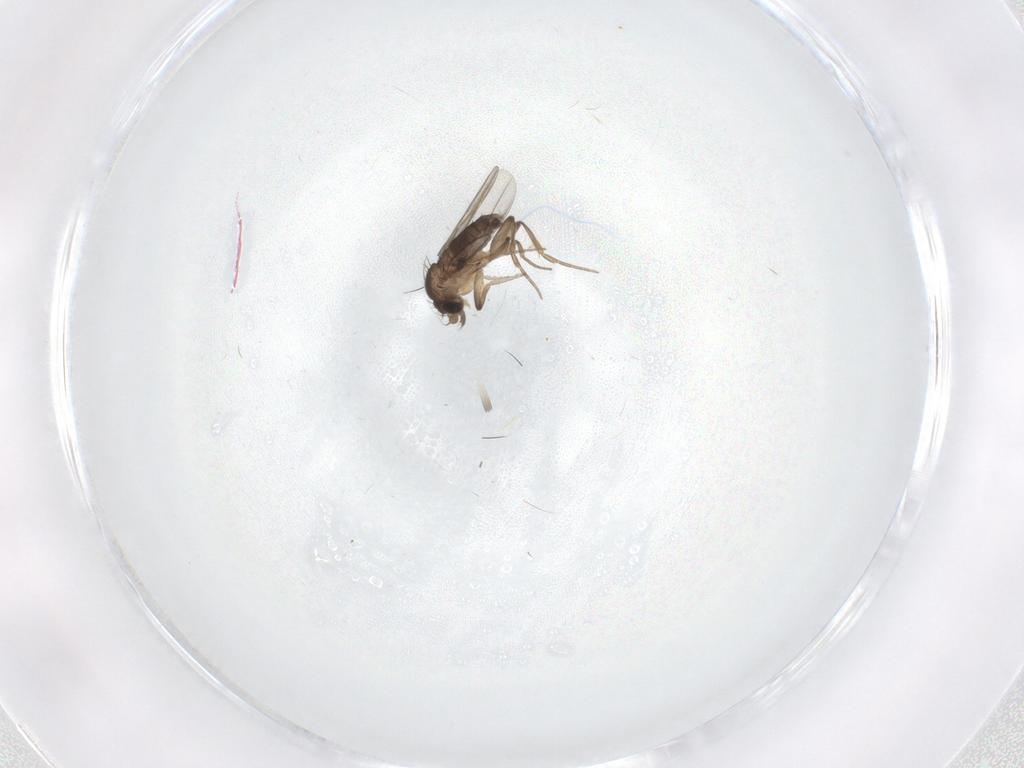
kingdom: Animalia
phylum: Arthropoda
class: Insecta
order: Diptera
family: Phoridae
